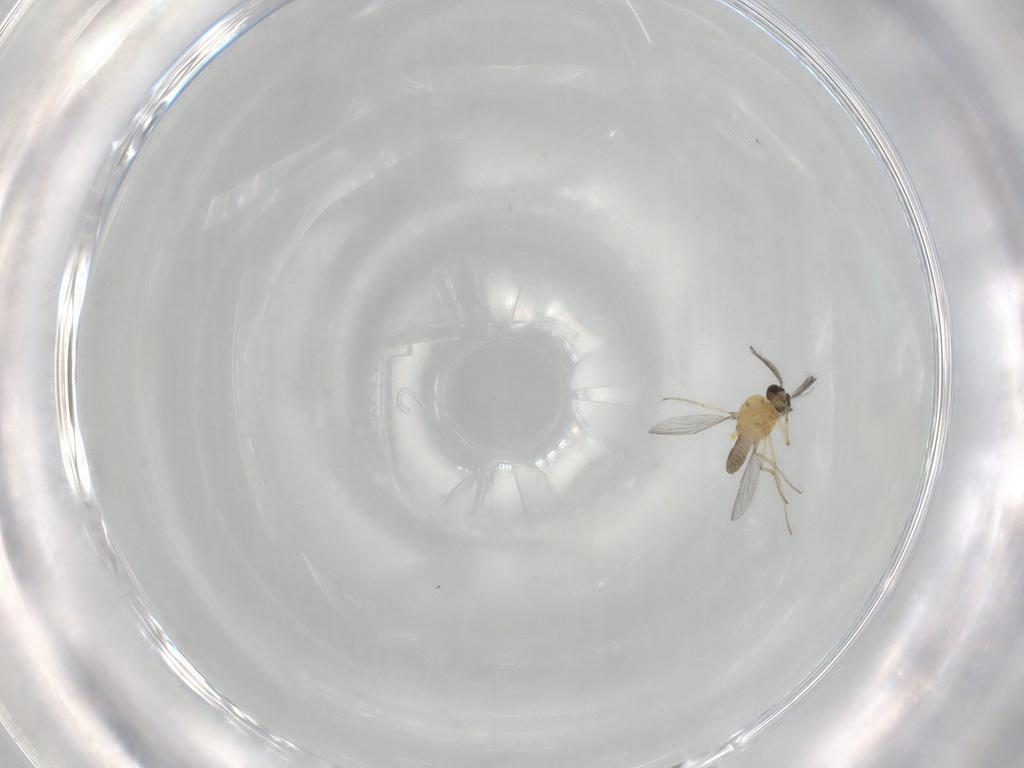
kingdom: Animalia
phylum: Arthropoda
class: Insecta
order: Diptera
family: Ceratopogonidae
